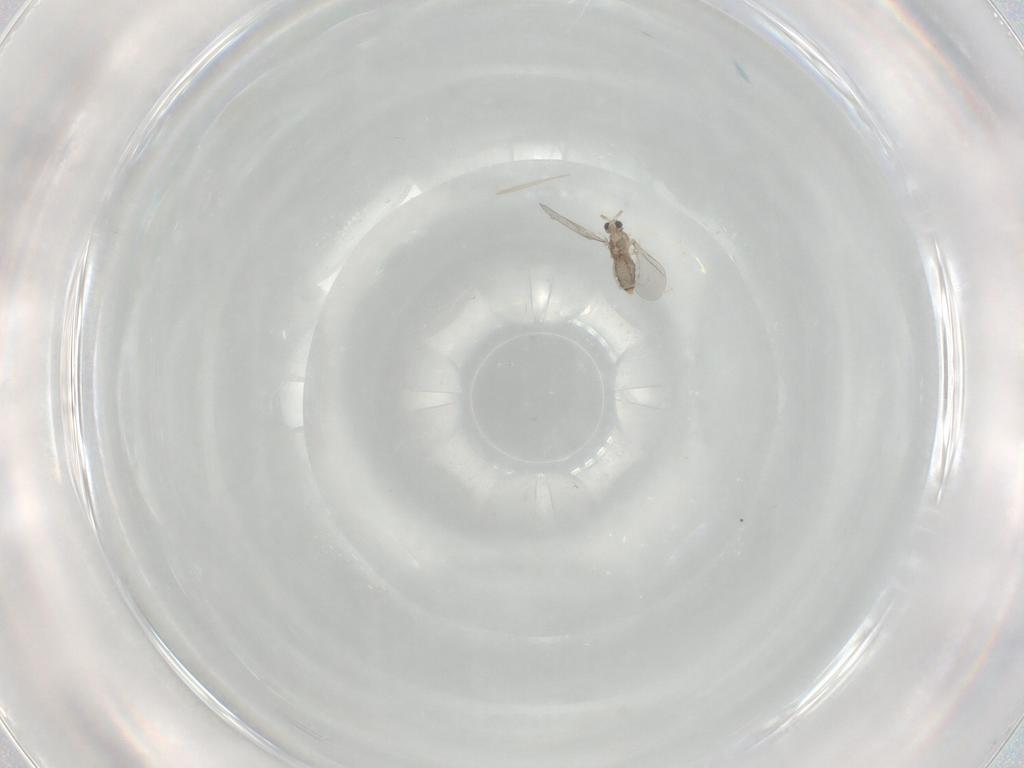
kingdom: Animalia
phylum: Arthropoda
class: Insecta
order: Diptera
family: Cecidomyiidae
